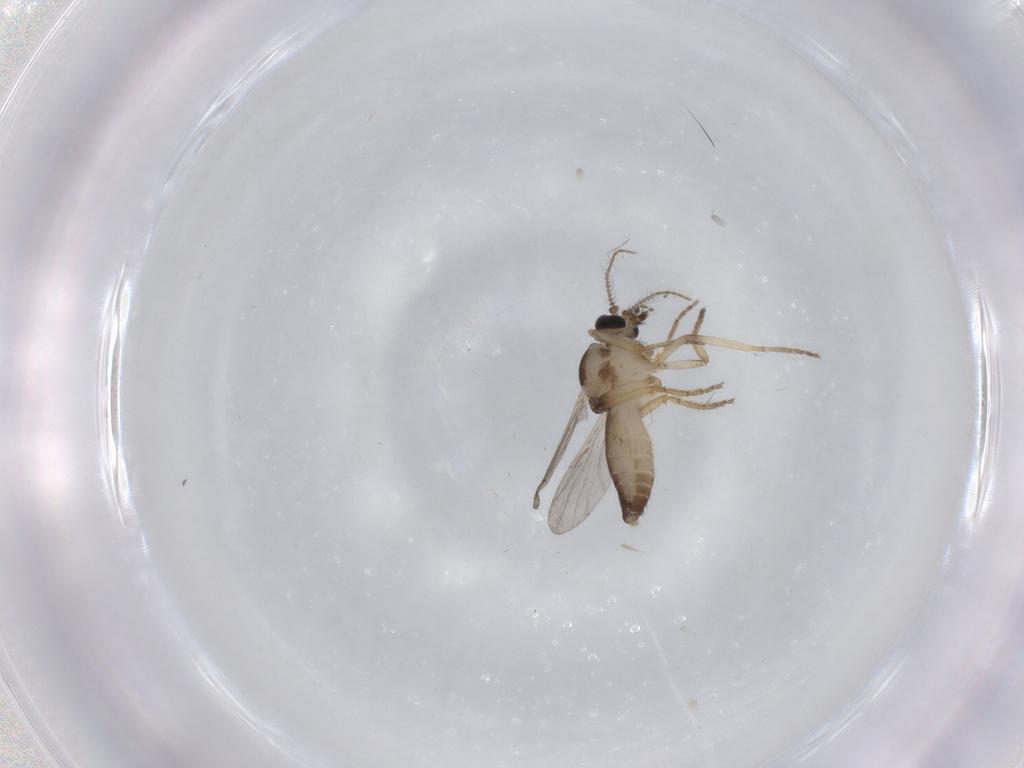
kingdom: Animalia
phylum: Arthropoda
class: Insecta
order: Diptera
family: Ceratopogonidae
